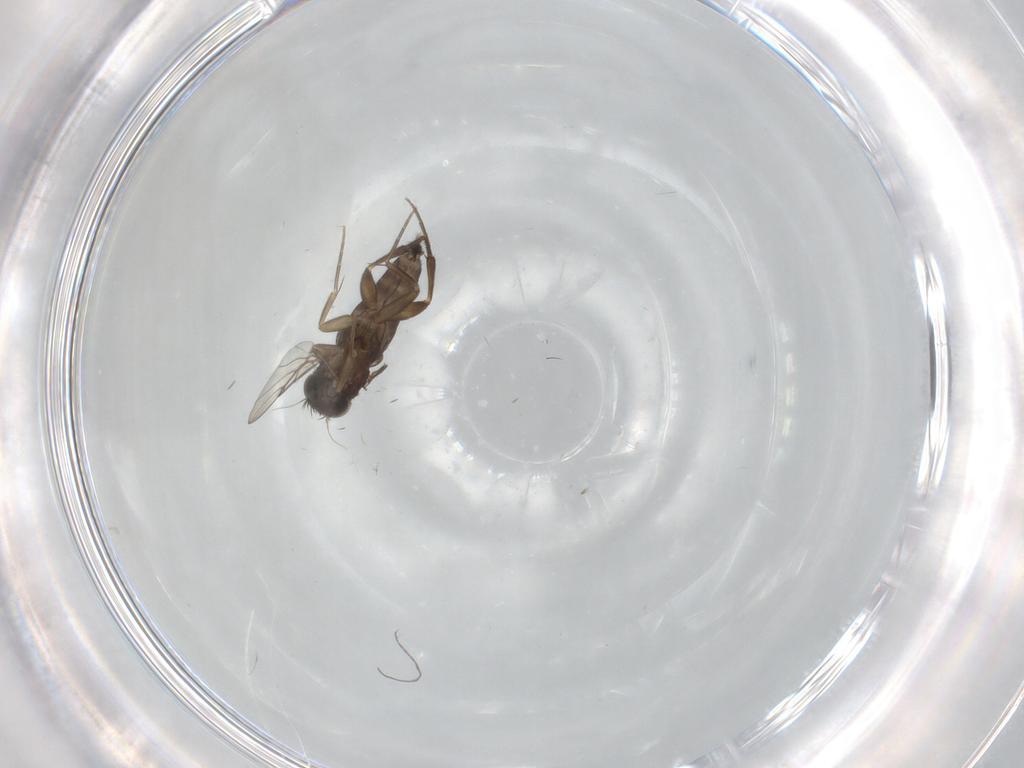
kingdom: Animalia
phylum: Arthropoda
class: Insecta
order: Diptera
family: Phoridae
